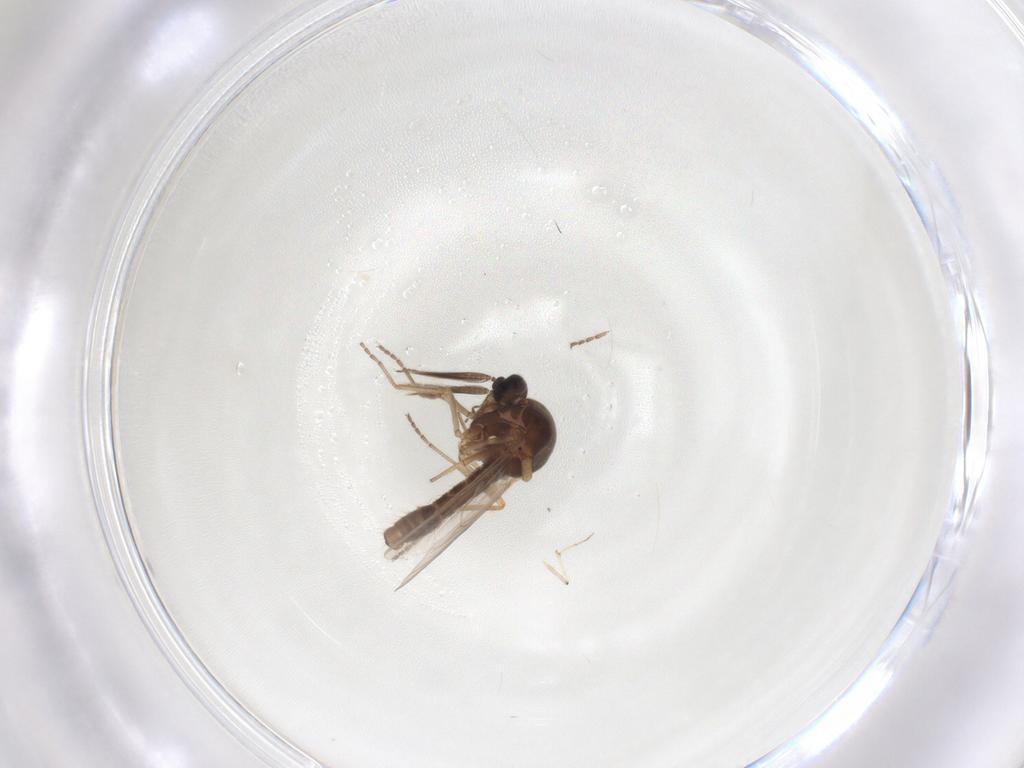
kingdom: Animalia
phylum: Arthropoda
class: Insecta
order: Diptera
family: Ceratopogonidae
